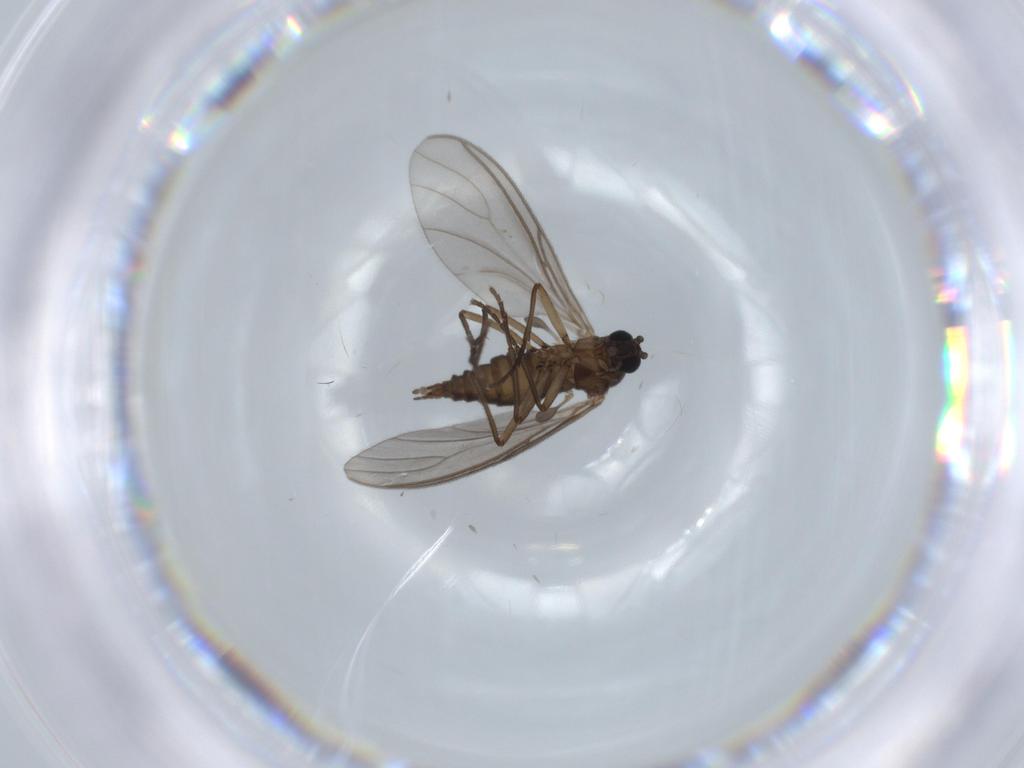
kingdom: Animalia
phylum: Arthropoda
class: Insecta
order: Diptera
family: Sciaridae
